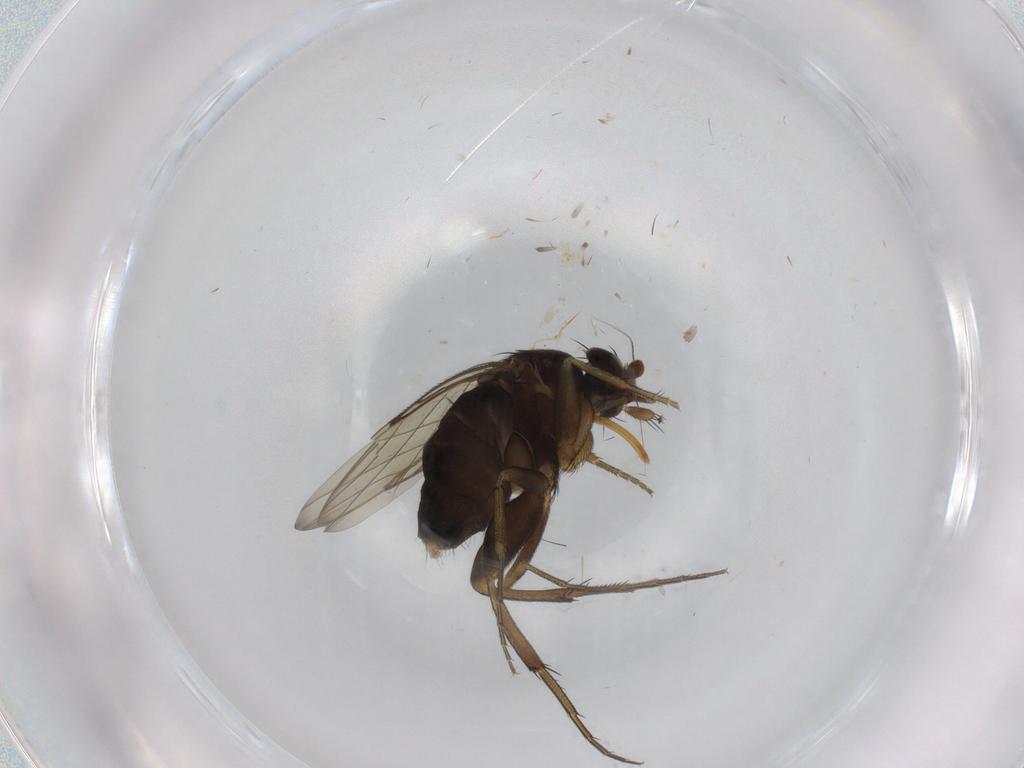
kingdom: Animalia
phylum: Arthropoda
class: Insecta
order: Diptera
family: Phoridae
